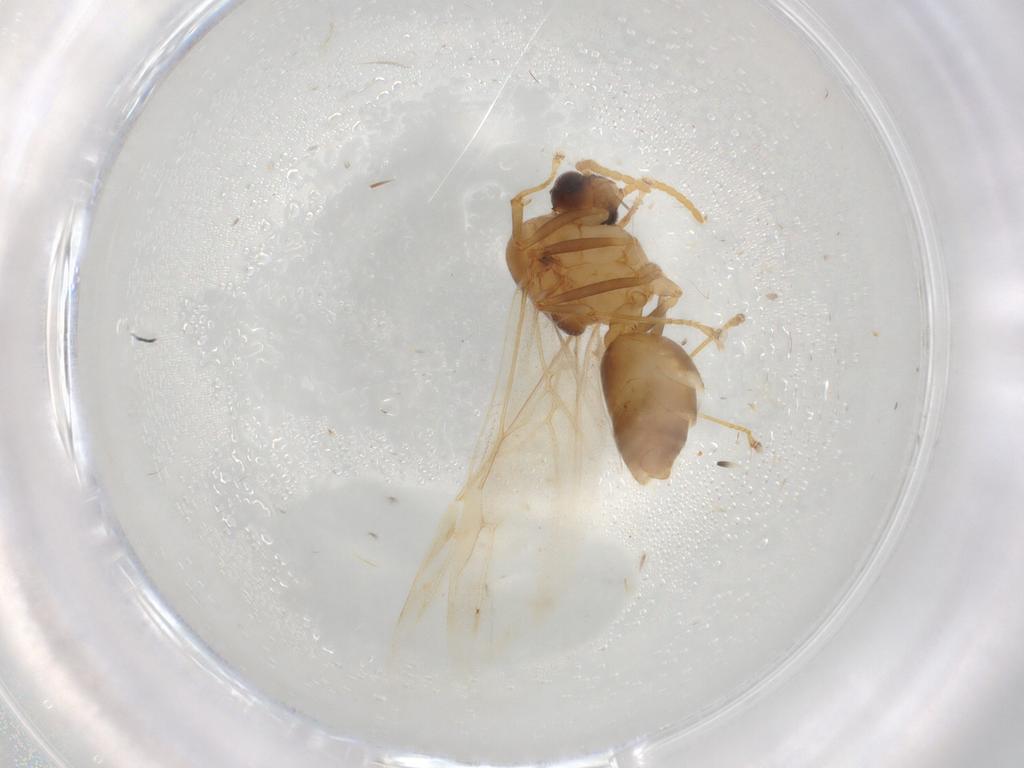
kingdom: Animalia
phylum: Arthropoda
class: Insecta
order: Hymenoptera
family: Formicidae
